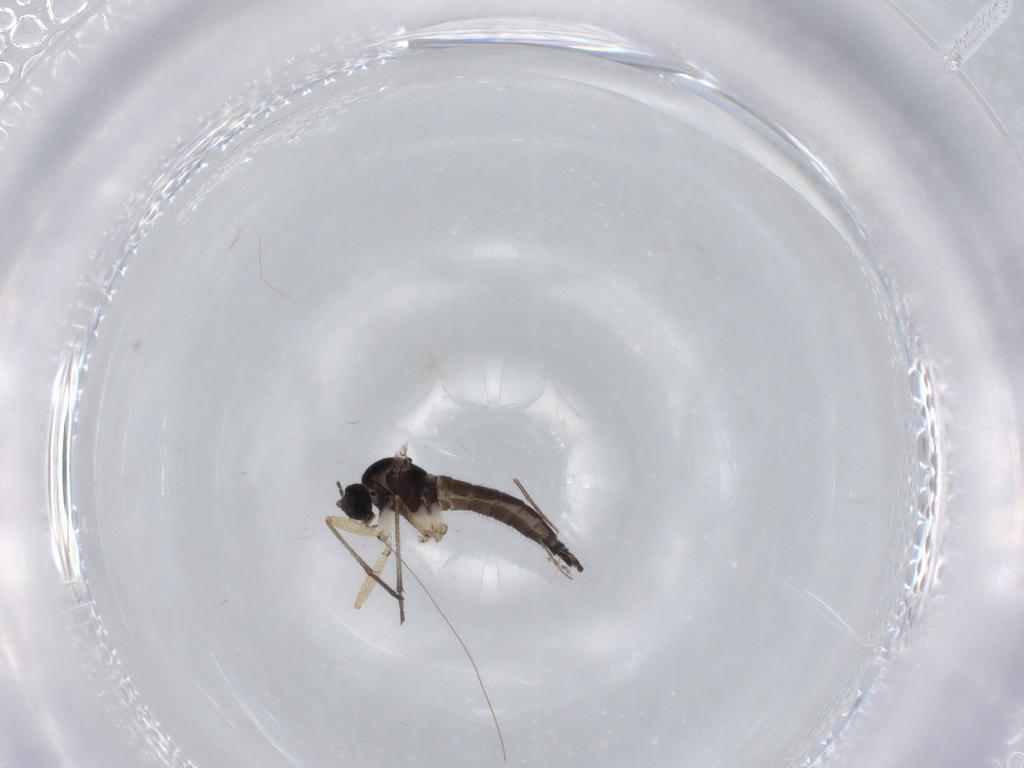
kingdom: Animalia
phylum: Arthropoda
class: Insecta
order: Diptera
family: Sciaridae
